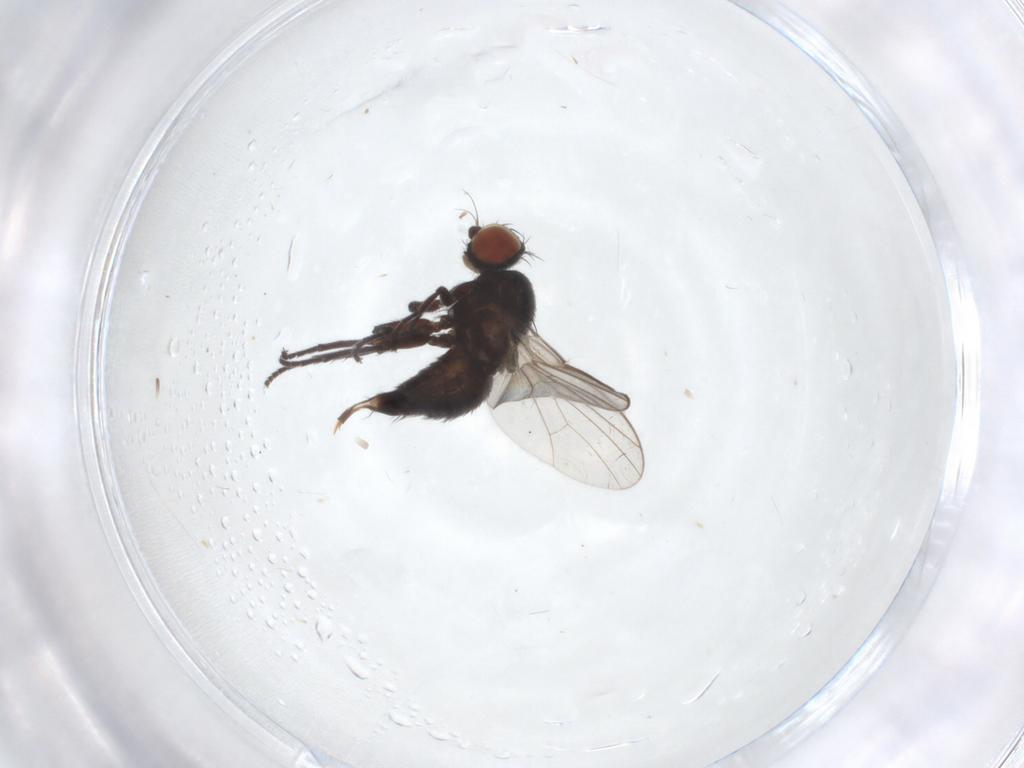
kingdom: Animalia
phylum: Arthropoda
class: Insecta
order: Diptera
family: Agromyzidae
